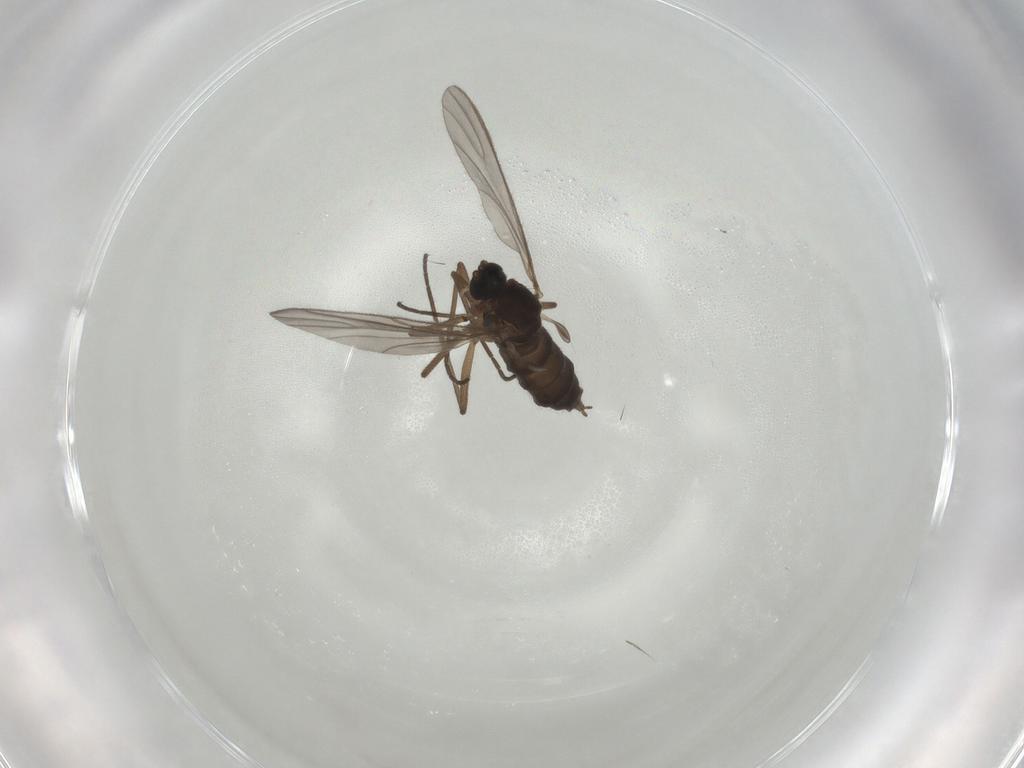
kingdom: Animalia
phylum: Arthropoda
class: Insecta
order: Diptera
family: Sciaridae
